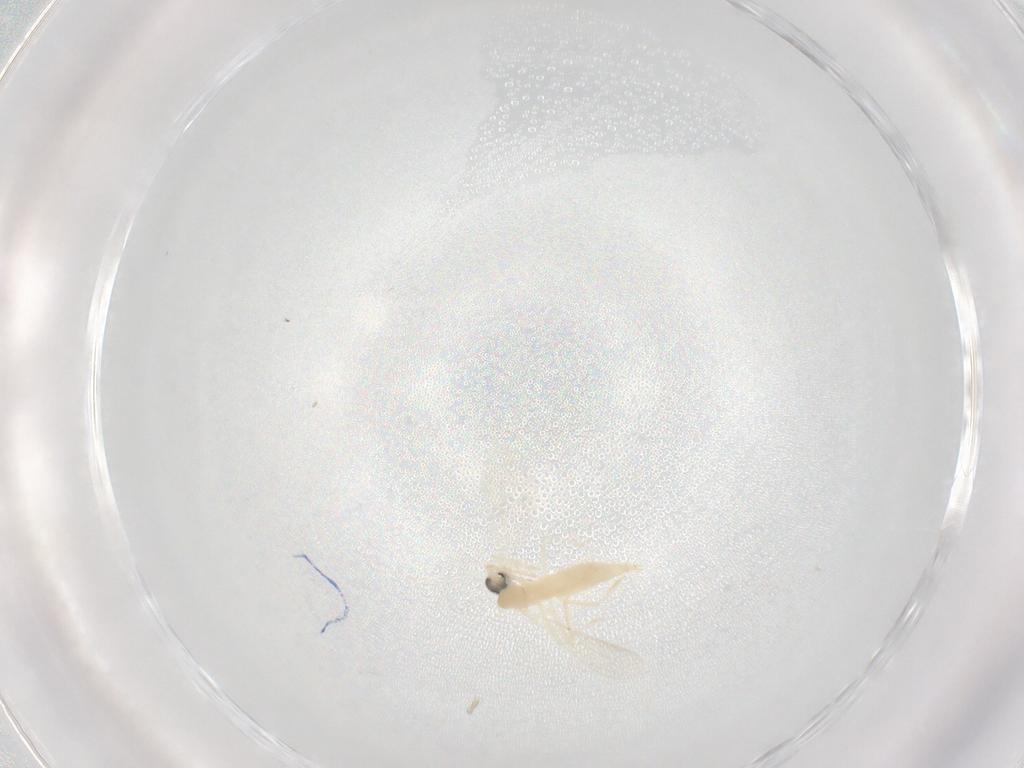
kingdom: Animalia
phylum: Arthropoda
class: Insecta
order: Diptera
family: Cecidomyiidae
